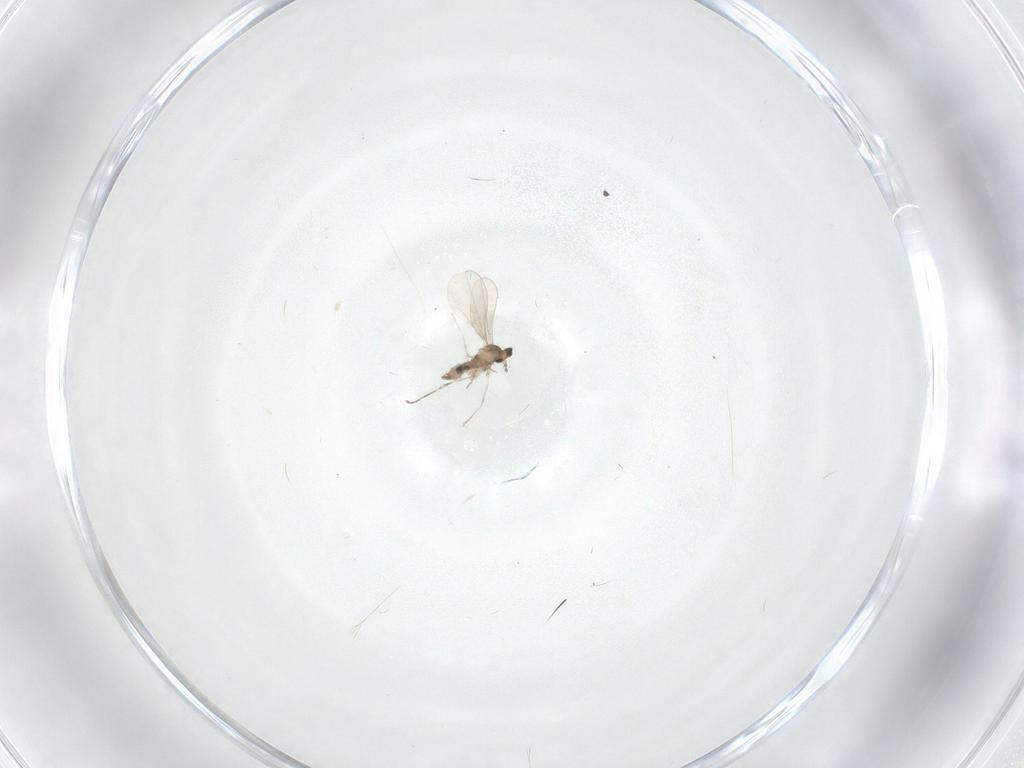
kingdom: Animalia
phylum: Arthropoda
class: Insecta
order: Diptera
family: Cecidomyiidae
